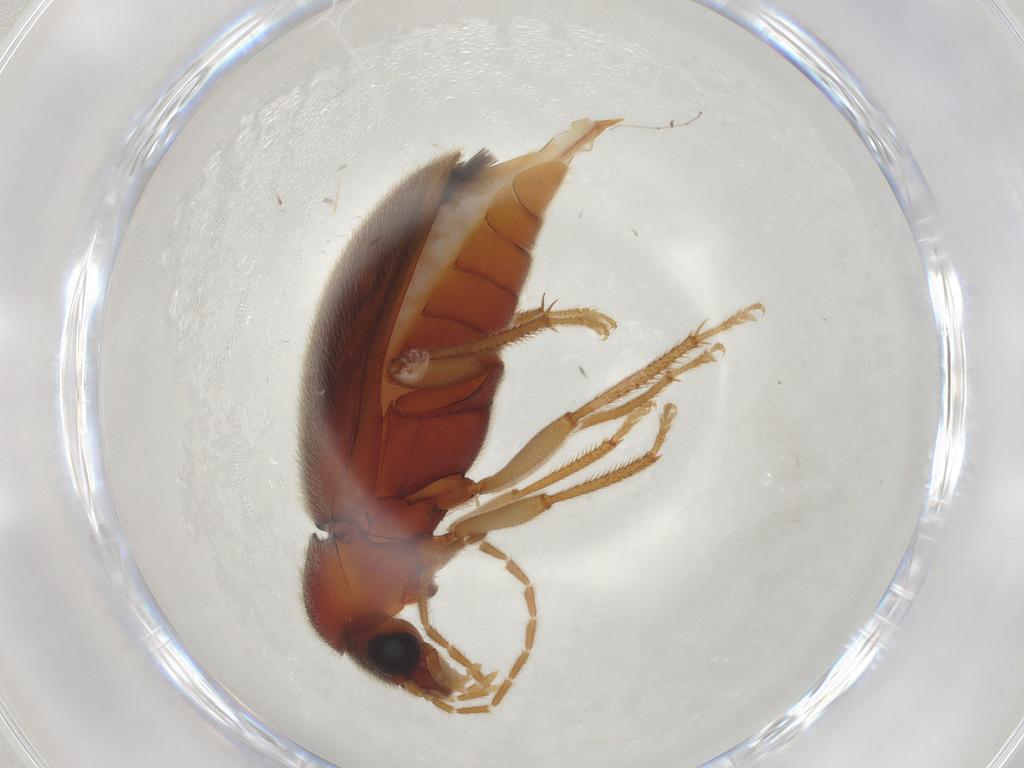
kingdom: Animalia
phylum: Arthropoda
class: Insecta
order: Coleoptera
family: Ptilodactylidae
